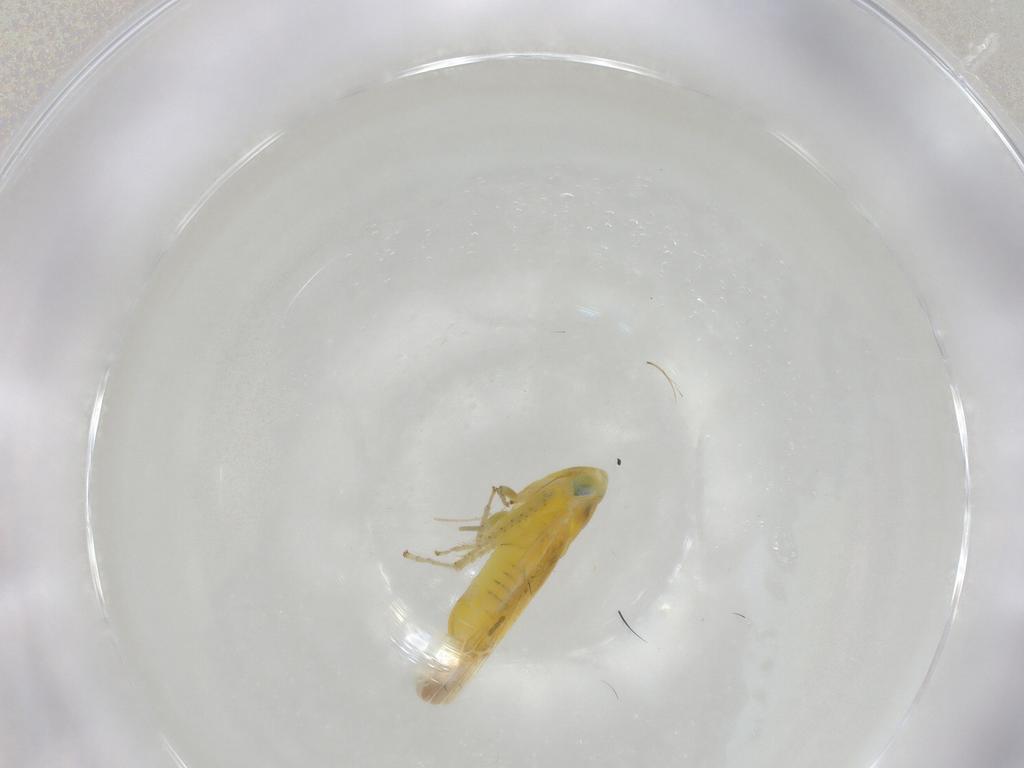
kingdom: Animalia
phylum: Arthropoda
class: Insecta
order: Hemiptera
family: Cicadellidae
